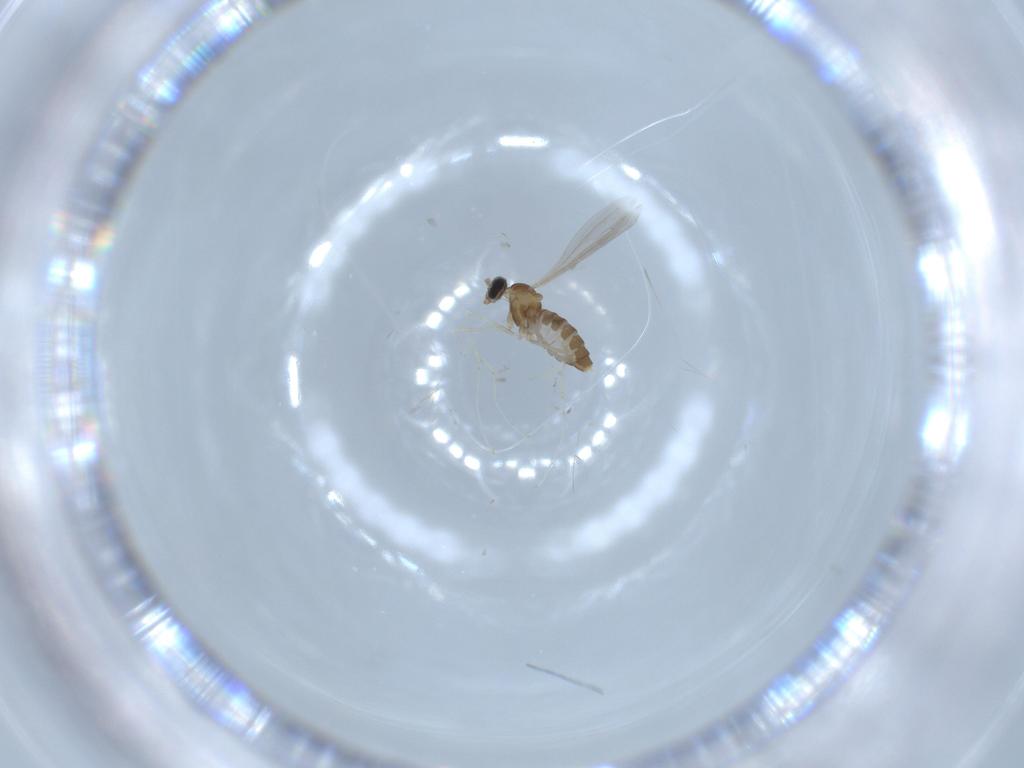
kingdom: Animalia
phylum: Arthropoda
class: Insecta
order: Diptera
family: Cecidomyiidae
